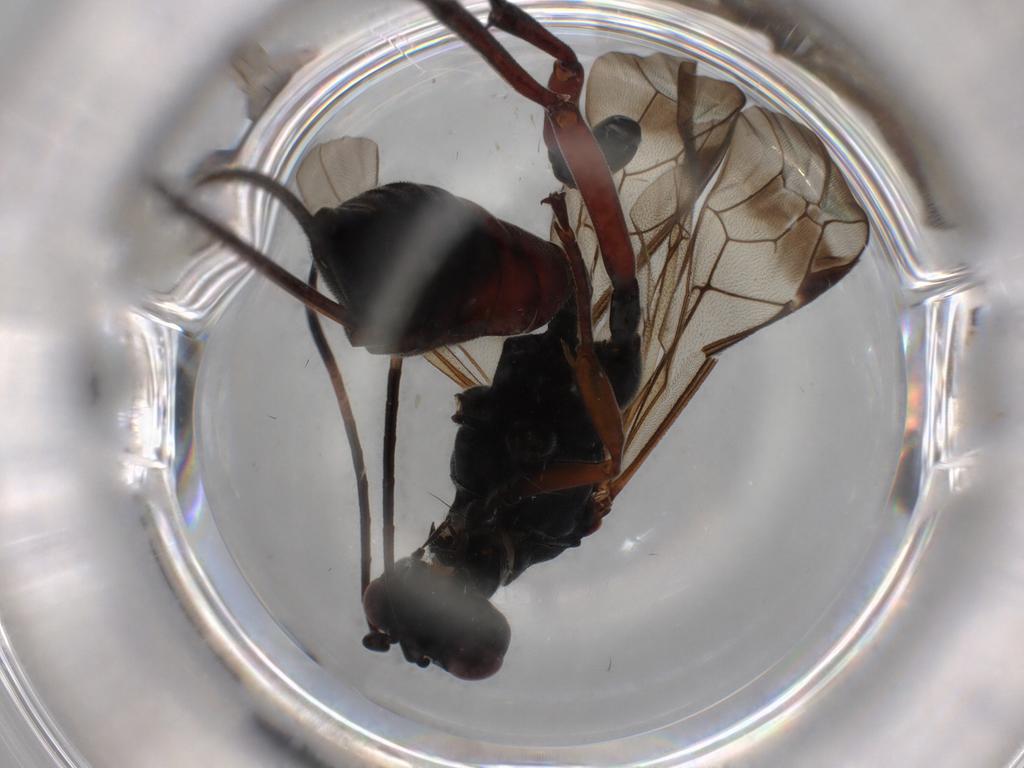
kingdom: Animalia
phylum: Arthropoda
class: Insecta
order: Hymenoptera
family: Ichneumonidae
